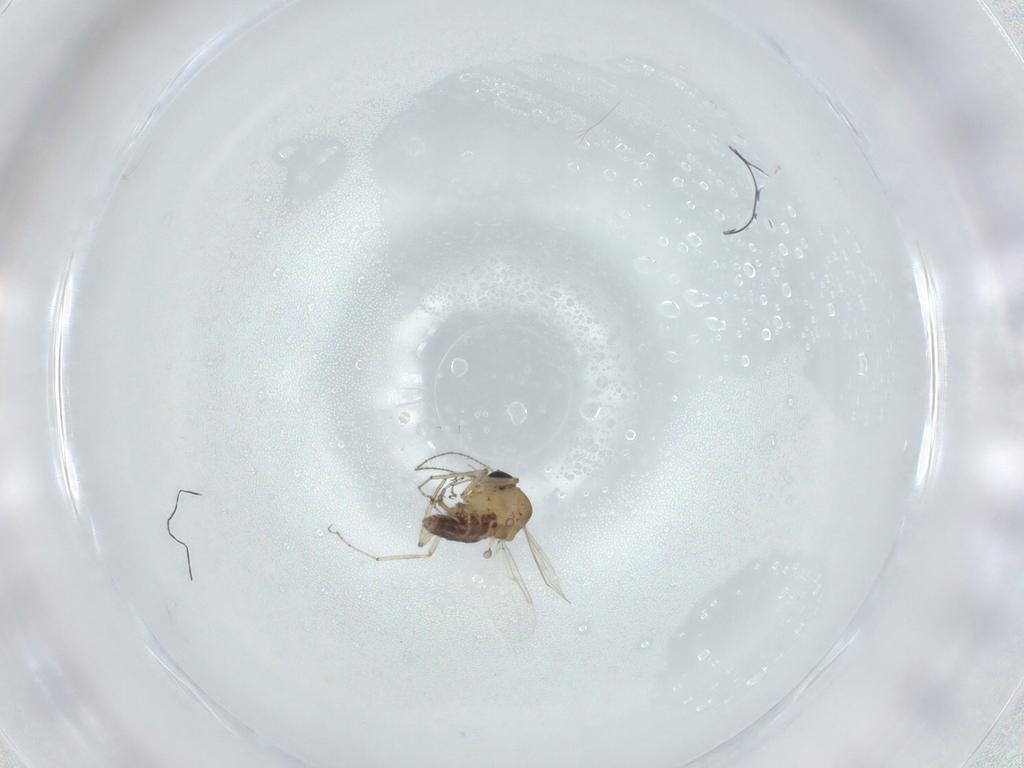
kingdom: Animalia
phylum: Arthropoda
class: Insecta
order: Diptera
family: Ceratopogonidae
